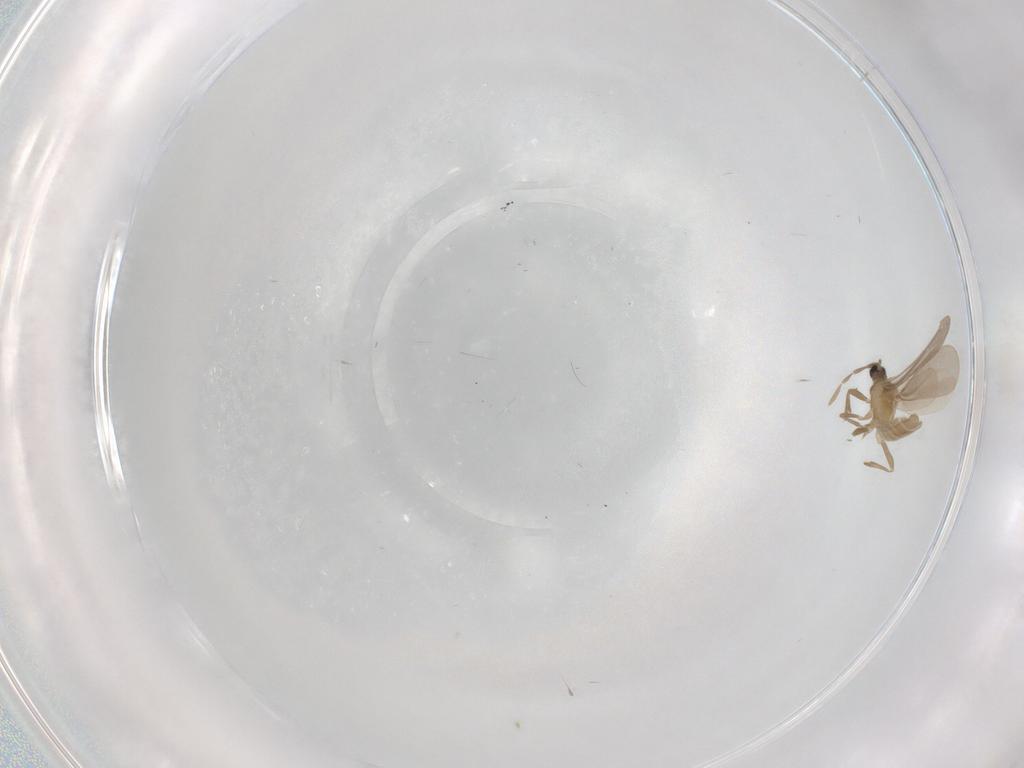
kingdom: Animalia
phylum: Arthropoda
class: Insecta
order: Hemiptera
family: Enicocephalidae
